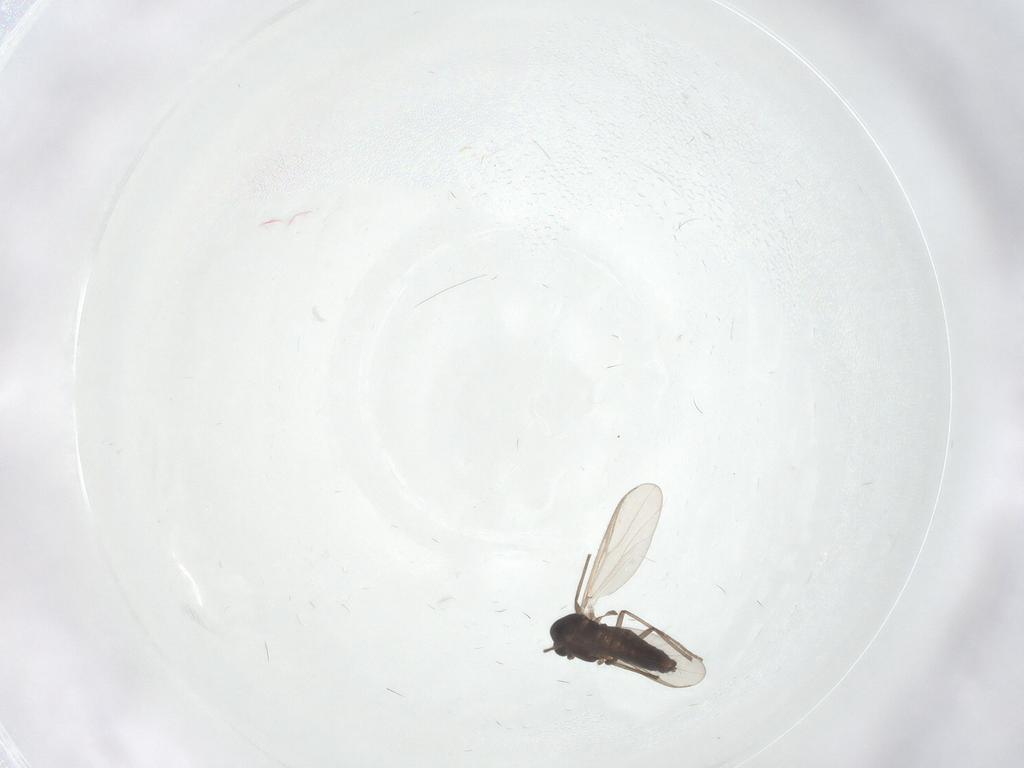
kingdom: Animalia
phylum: Arthropoda
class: Insecta
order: Diptera
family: Chironomidae
